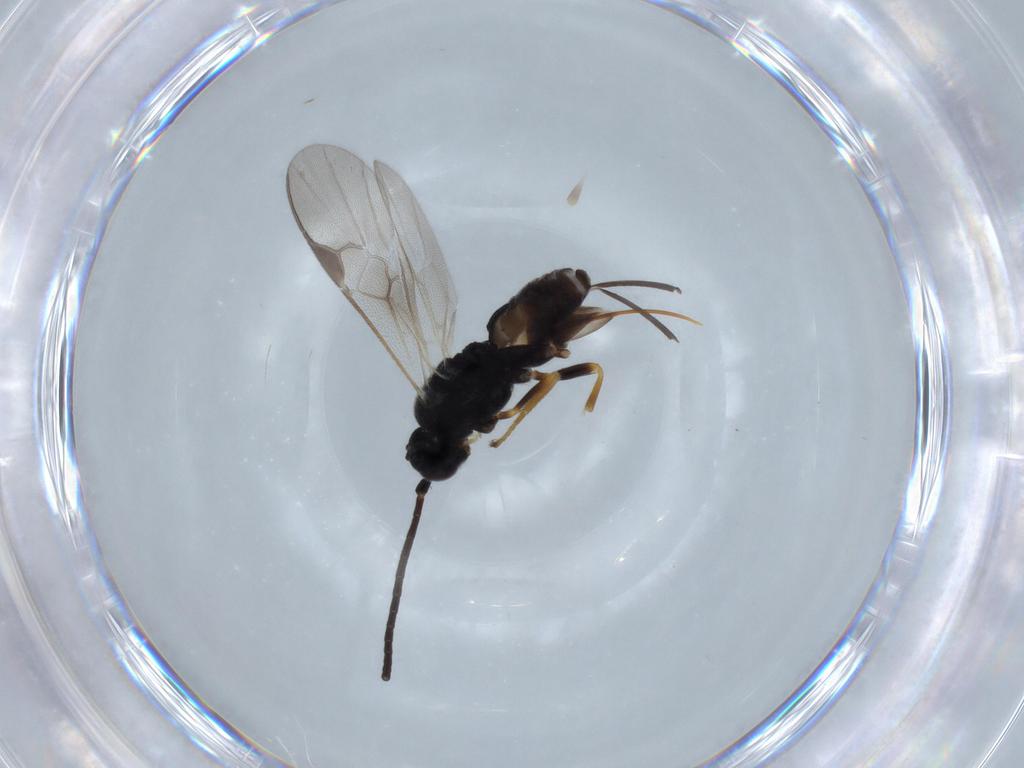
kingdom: Animalia
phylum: Arthropoda
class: Insecta
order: Hymenoptera
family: Braconidae
